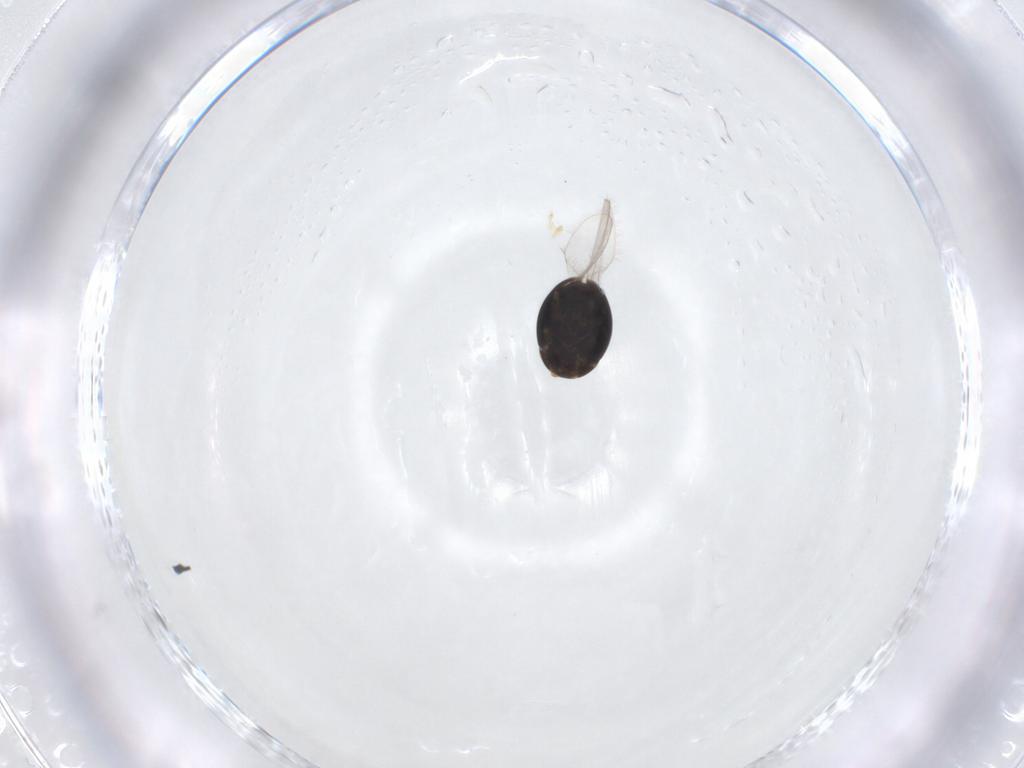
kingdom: Animalia
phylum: Arthropoda
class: Insecta
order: Coleoptera
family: Corylophidae
